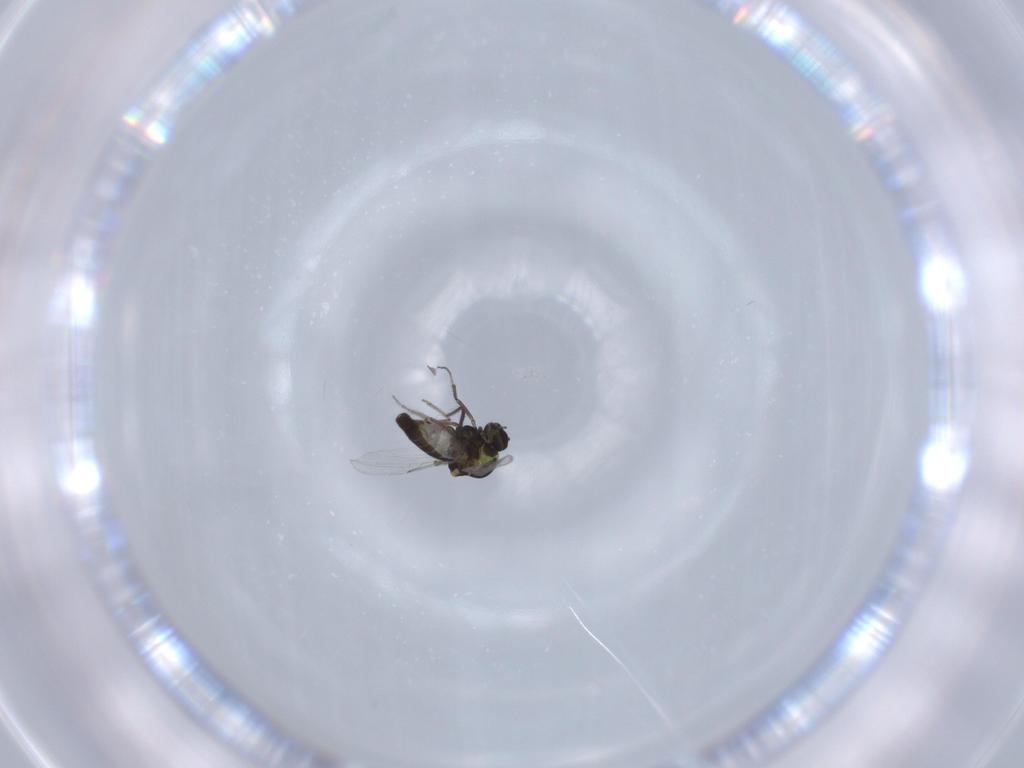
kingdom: Animalia
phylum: Arthropoda
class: Insecta
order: Diptera
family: Ceratopogonidae
